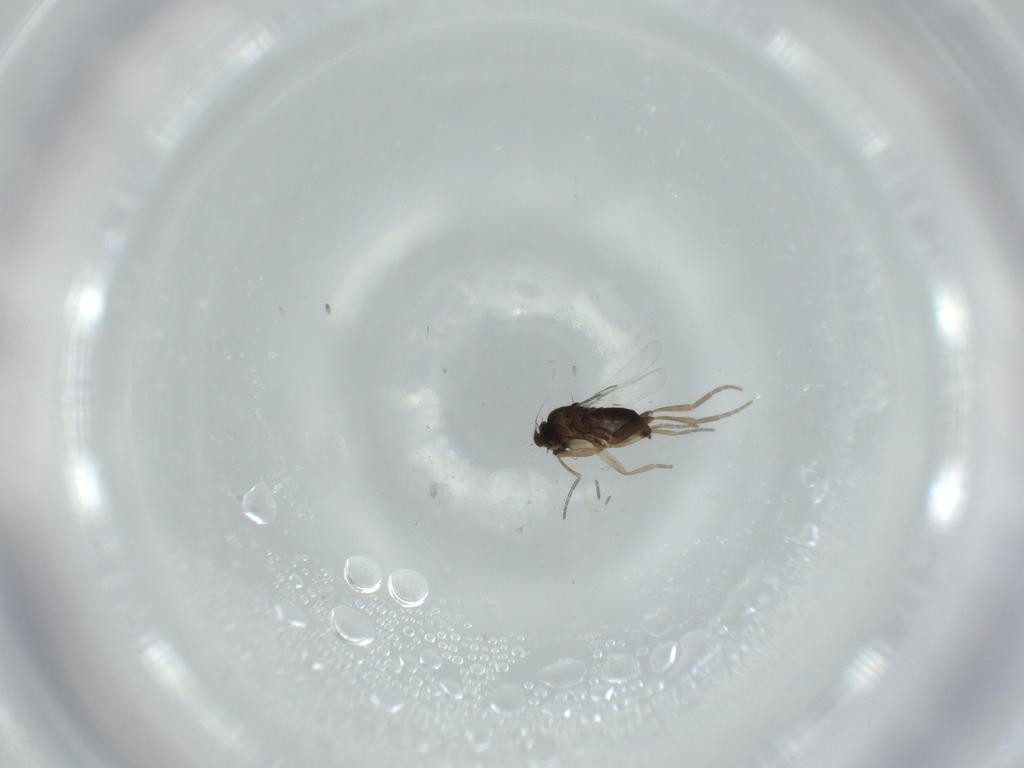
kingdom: Animalia
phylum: Arthropoda
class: Insecta
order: Diptera
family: Phoridae
